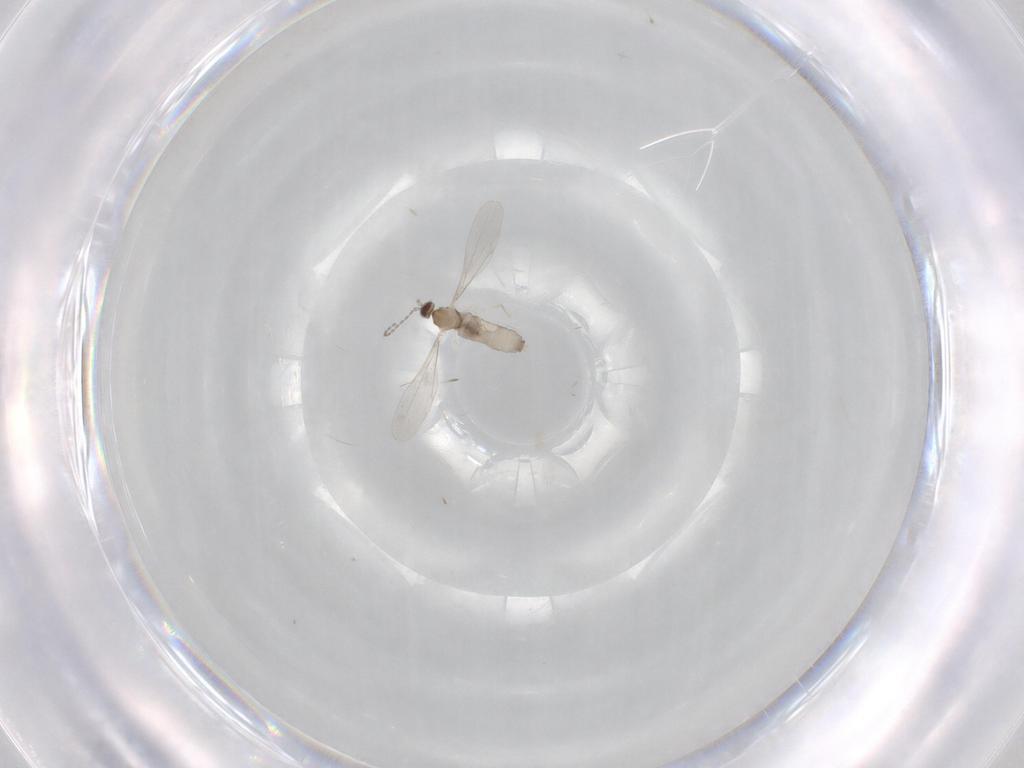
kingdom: Animalia
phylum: Arthropoda
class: Insecta
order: Diptera
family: Cecidomyiidae
